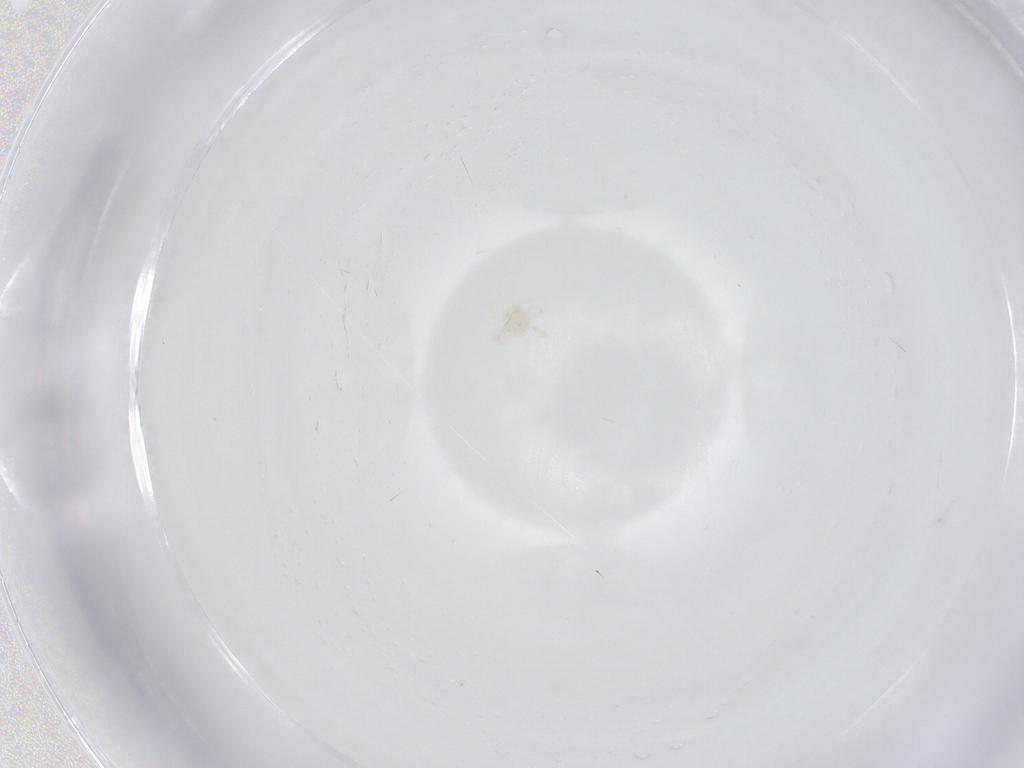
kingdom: Animalia
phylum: Arthropoda
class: Arachnida
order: Trombidiformes
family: Anystidae
